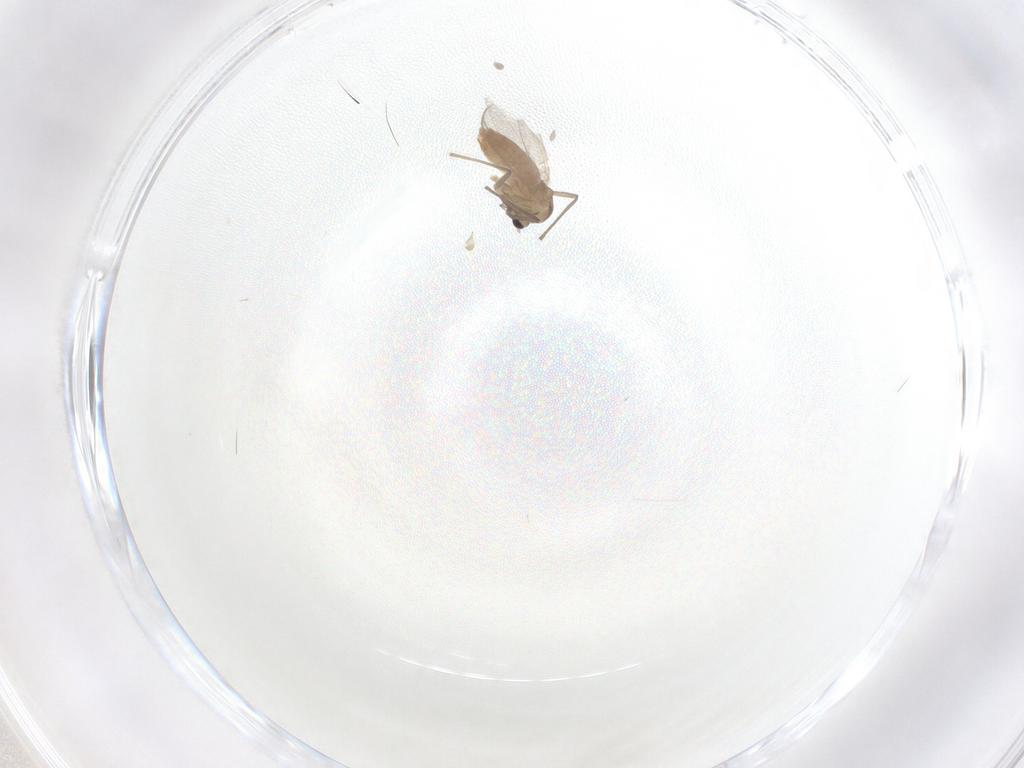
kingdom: Animalia
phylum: Arthropoda
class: Insecta
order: Diptera
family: Chironomidae
